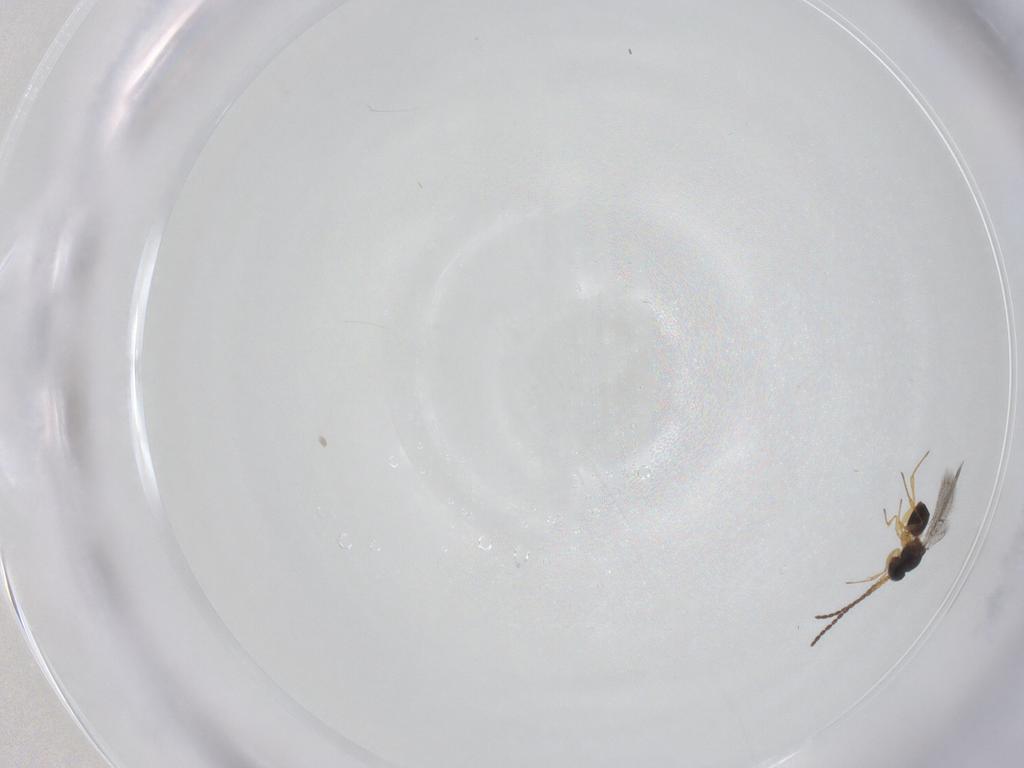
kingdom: Animalia
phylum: Arthropoda
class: Insecta
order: Hymenoptera
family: Figitidae
